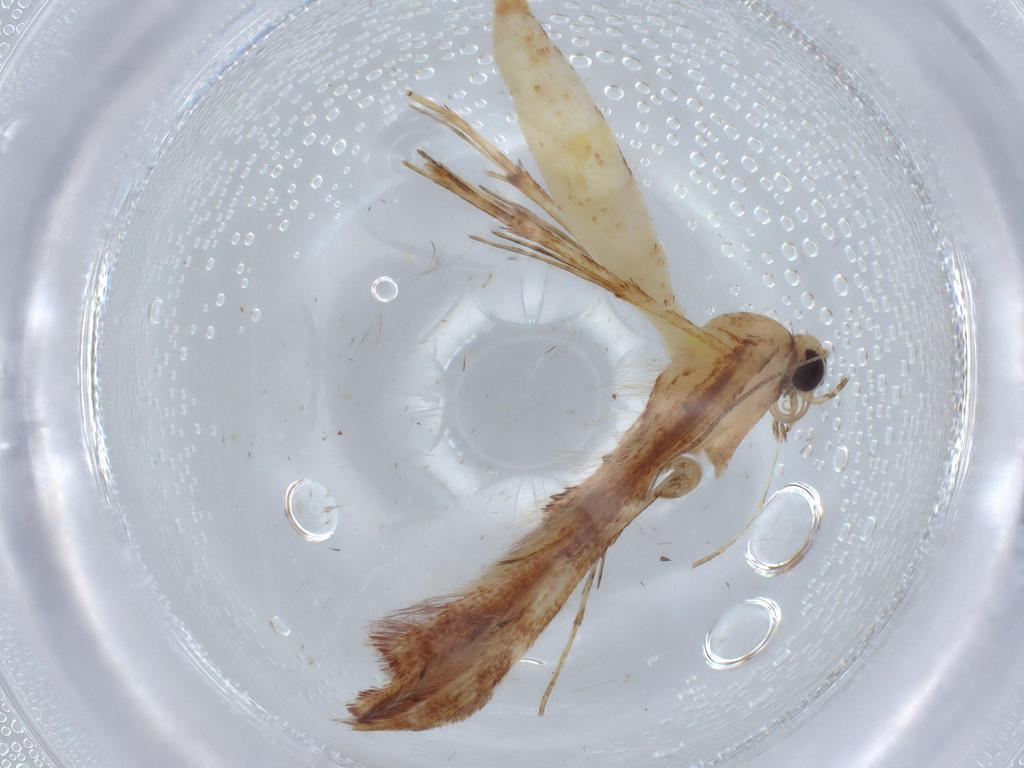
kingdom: Animalia
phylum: Arthropoda
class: Insecta
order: Lepidoptera
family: Pterophoridae
